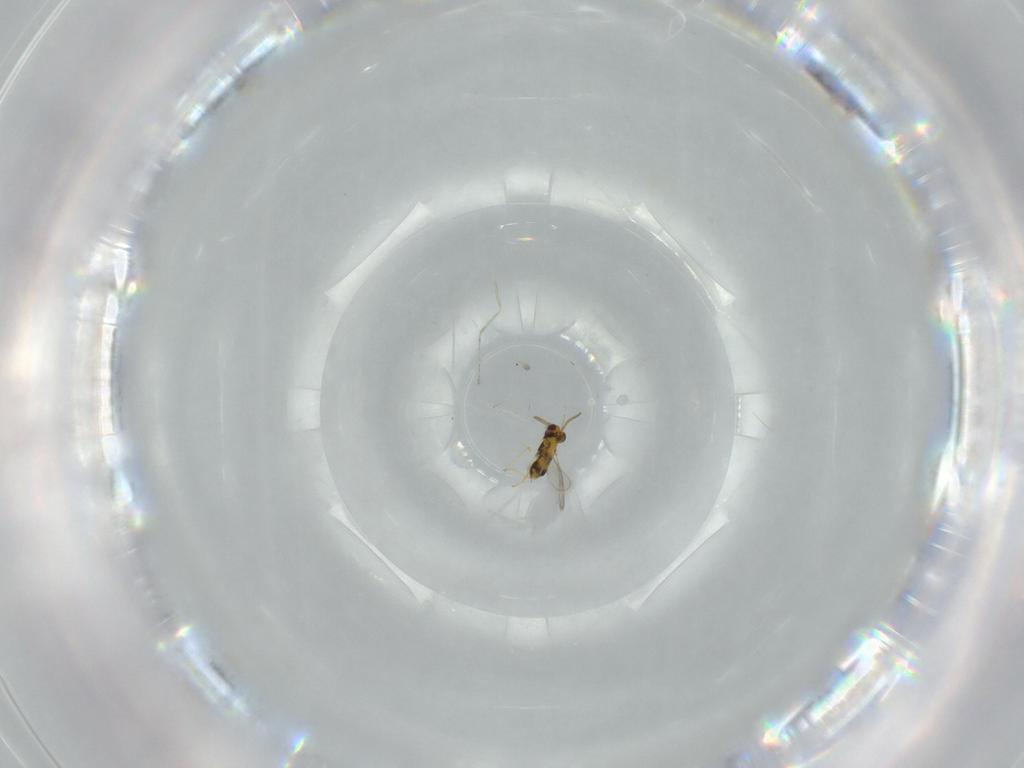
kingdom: Animalia
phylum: Arthropoda
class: Insecta
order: Hymenoptera
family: Aphelinidae
